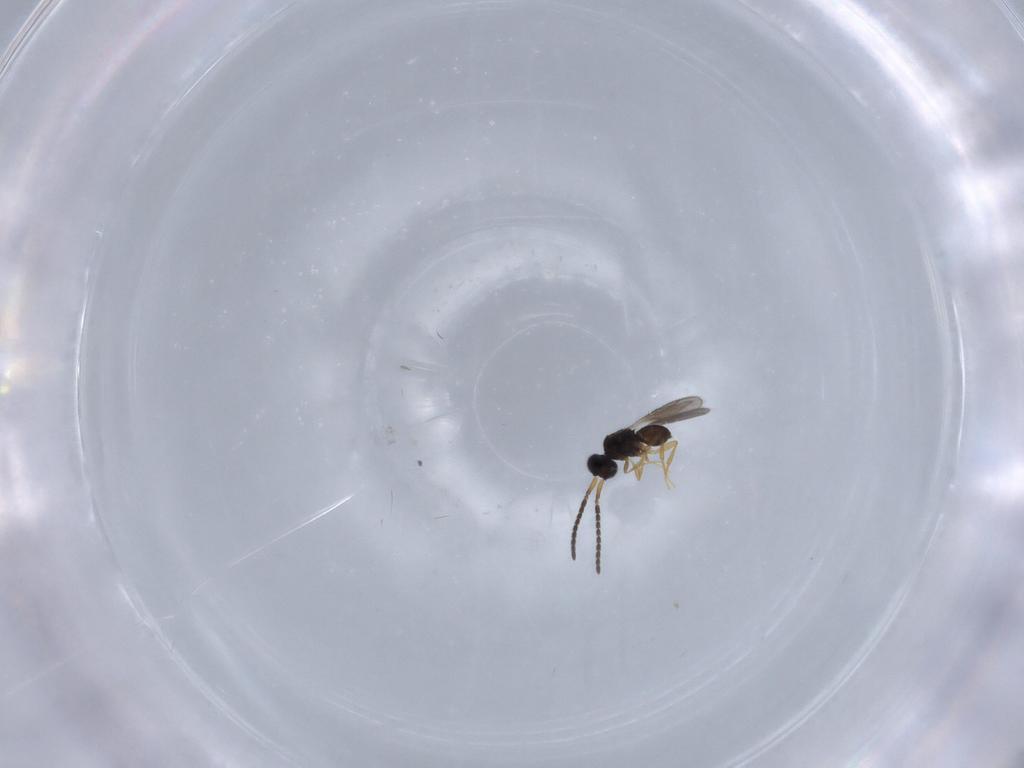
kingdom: Animalia
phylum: Arthropoda
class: Insecta
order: Hymenoptera
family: Ceraphronidae
